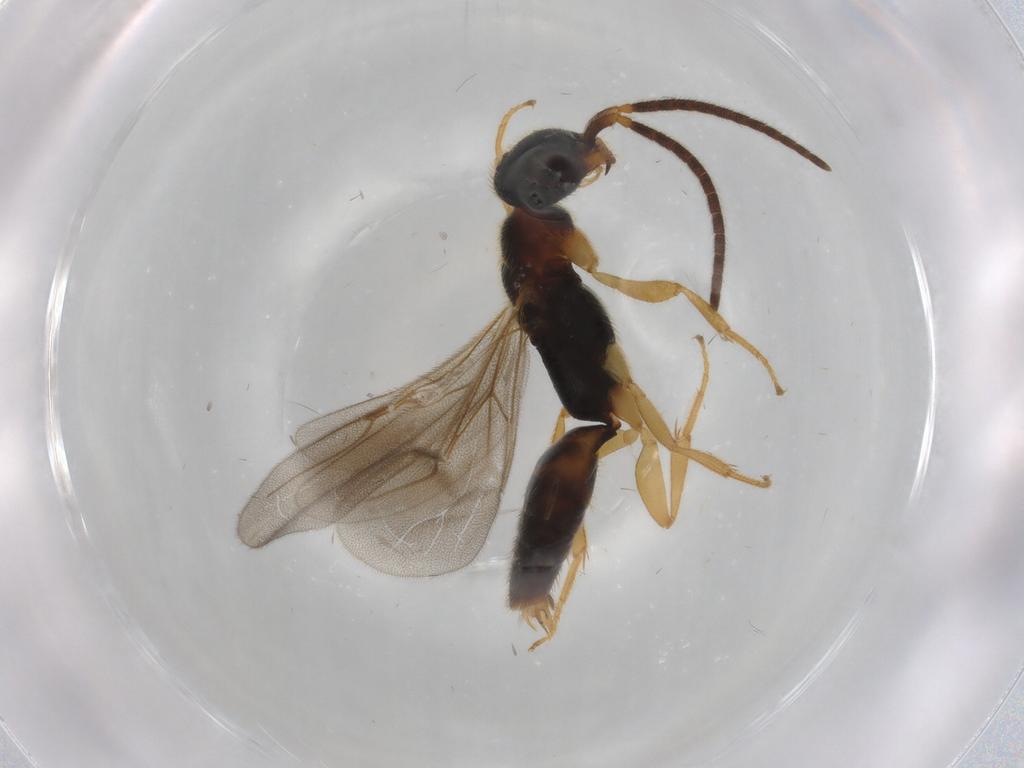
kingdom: Animalia
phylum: Arthropoda
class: Insecta
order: Hymenoptera
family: Bethylidae
